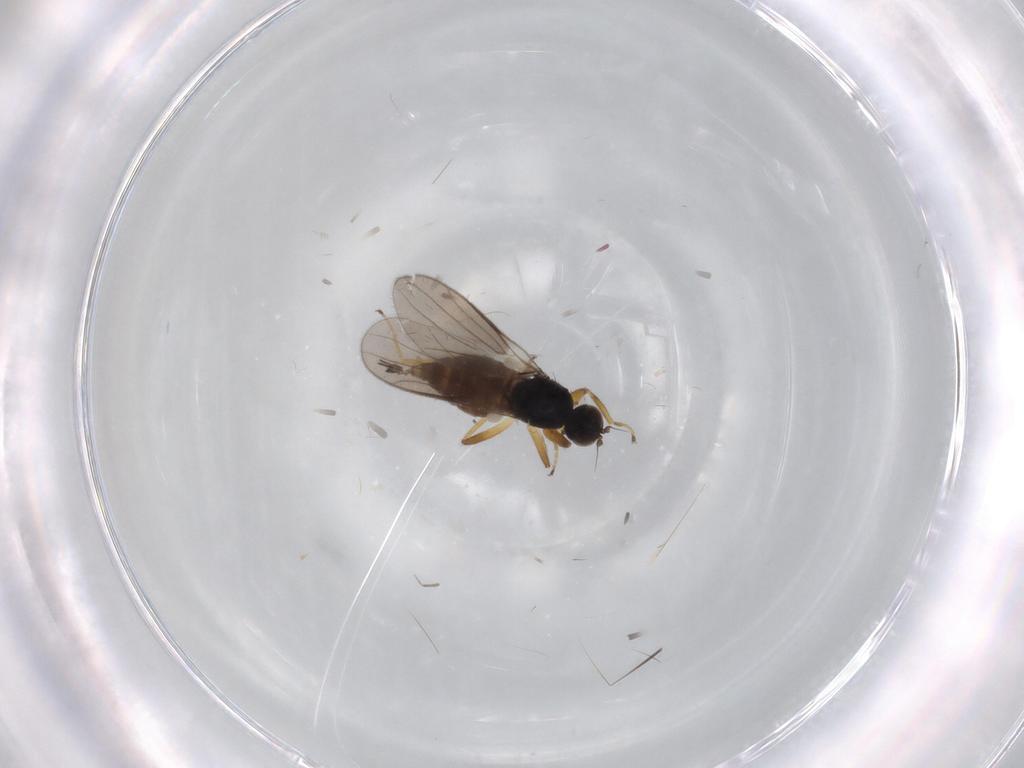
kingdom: Animalia
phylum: Arthropoda
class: Insecta
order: Diptera
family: Hybotidae
